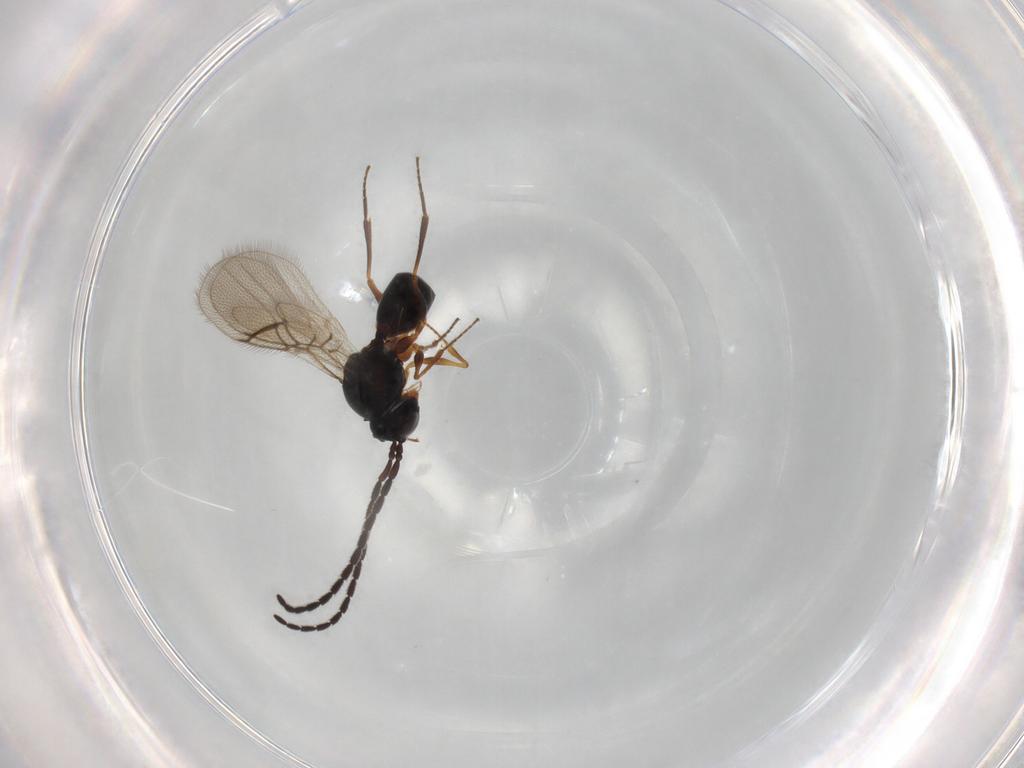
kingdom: Animalia
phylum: Arthropoda
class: Insecta
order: Hymenoptera
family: Figitidae
